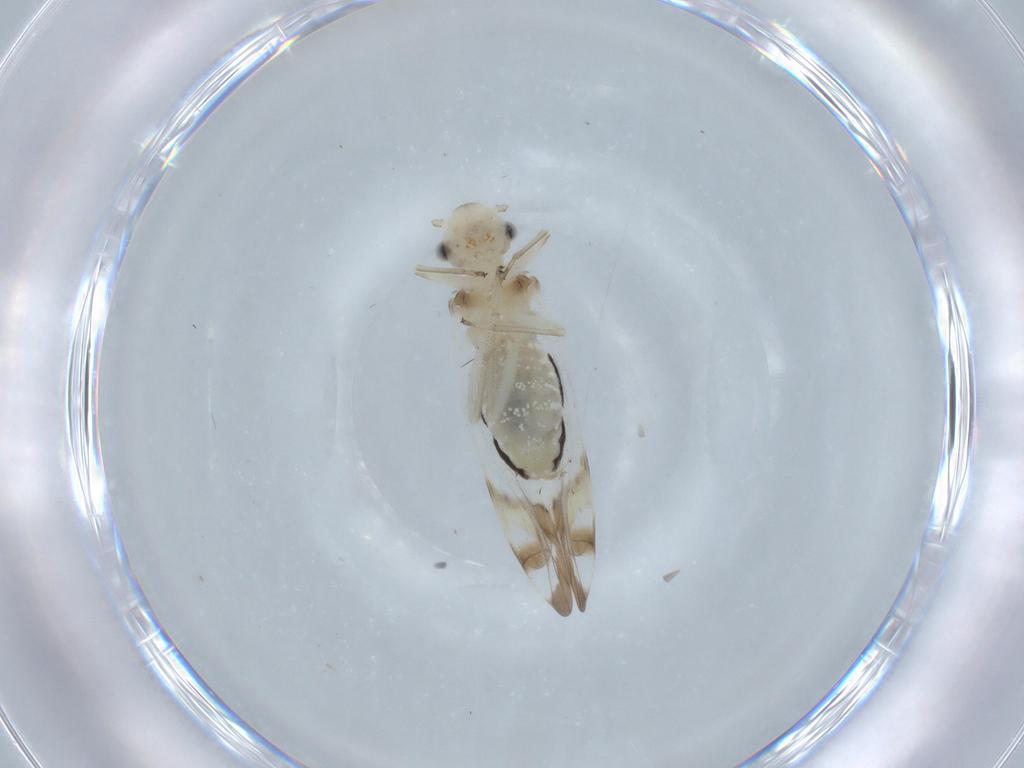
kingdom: Animalia
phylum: Arthropoda
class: Insecta
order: Psocodea
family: Stenopsocidae
